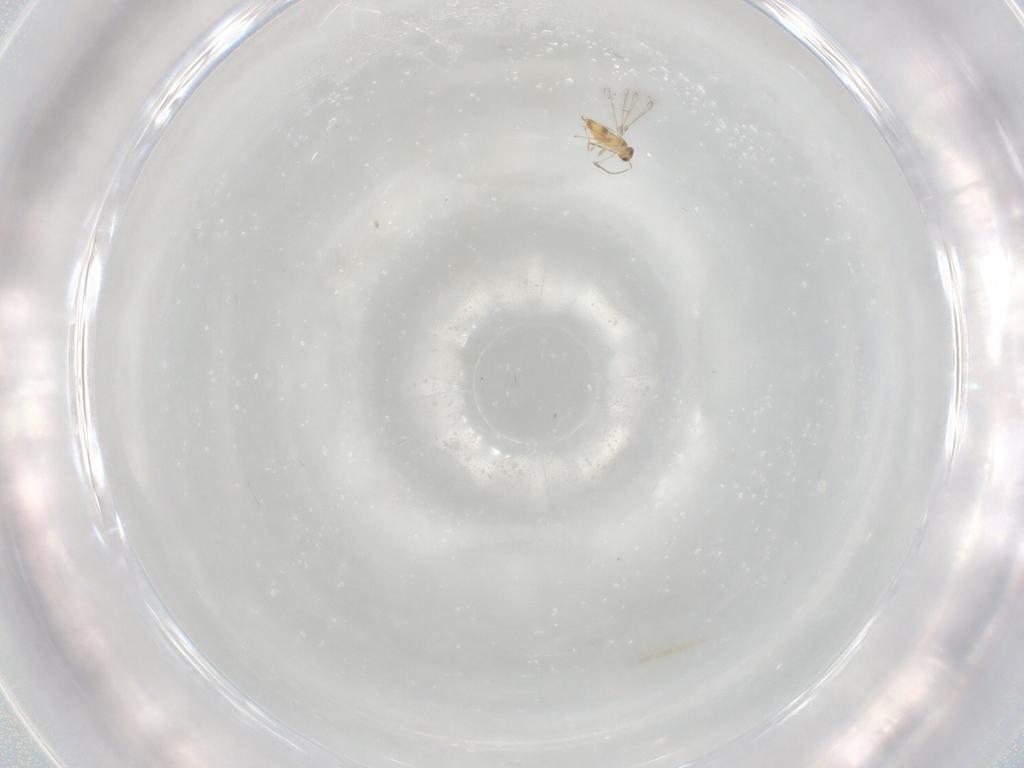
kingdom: Animalia
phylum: Arthropoda
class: Insecta
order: Hymenoptera
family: Mymaridae
